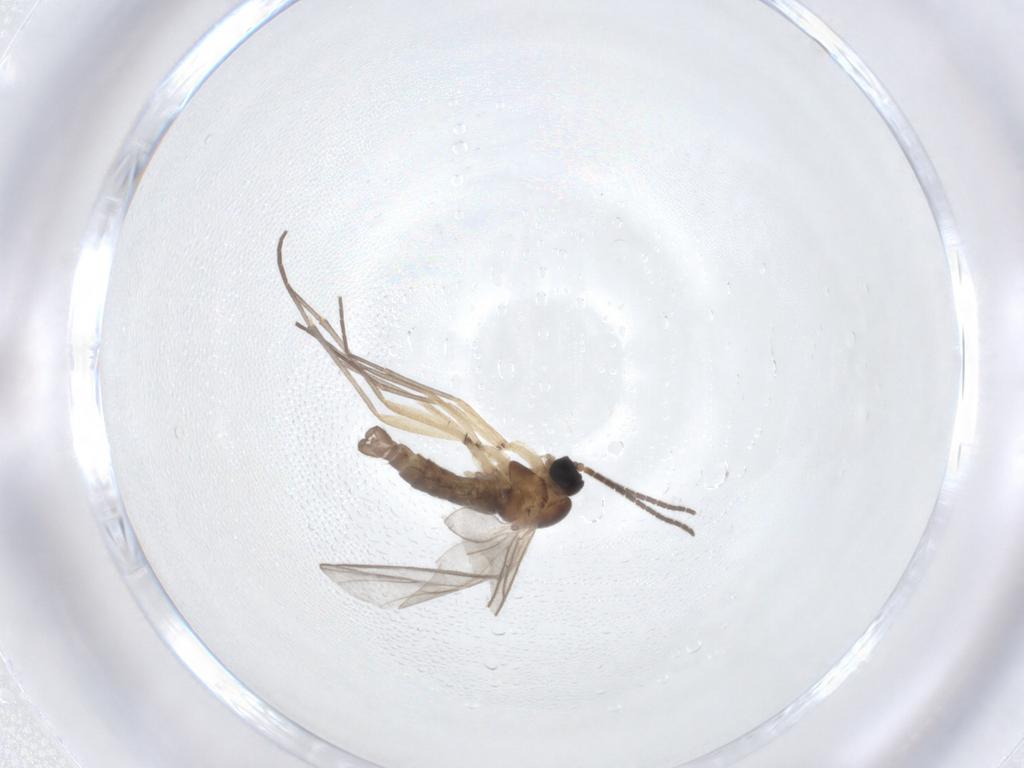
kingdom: Animalia
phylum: Arthropoda
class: Insecta
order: Diptera
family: Sciaridae
